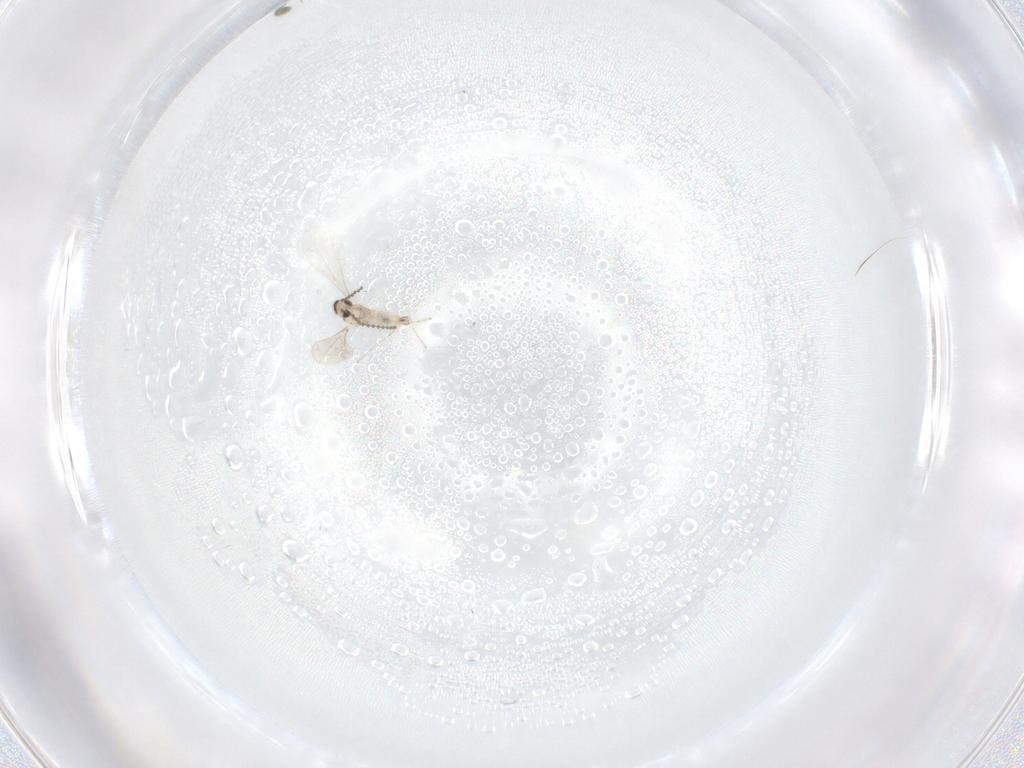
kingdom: Animalia
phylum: Arthropoda
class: Insecta
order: Diptera
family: Cecidomyiidae
